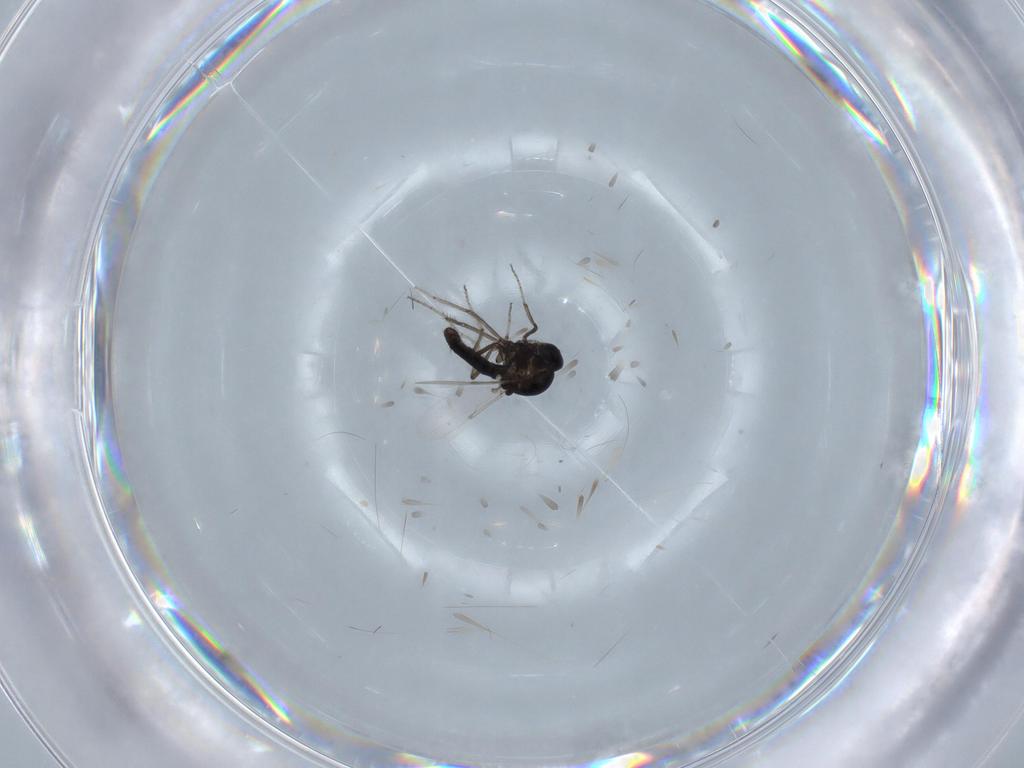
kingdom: Animalia
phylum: Arthropoda
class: Insecta
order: Diptera
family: Ceratopogonidae
